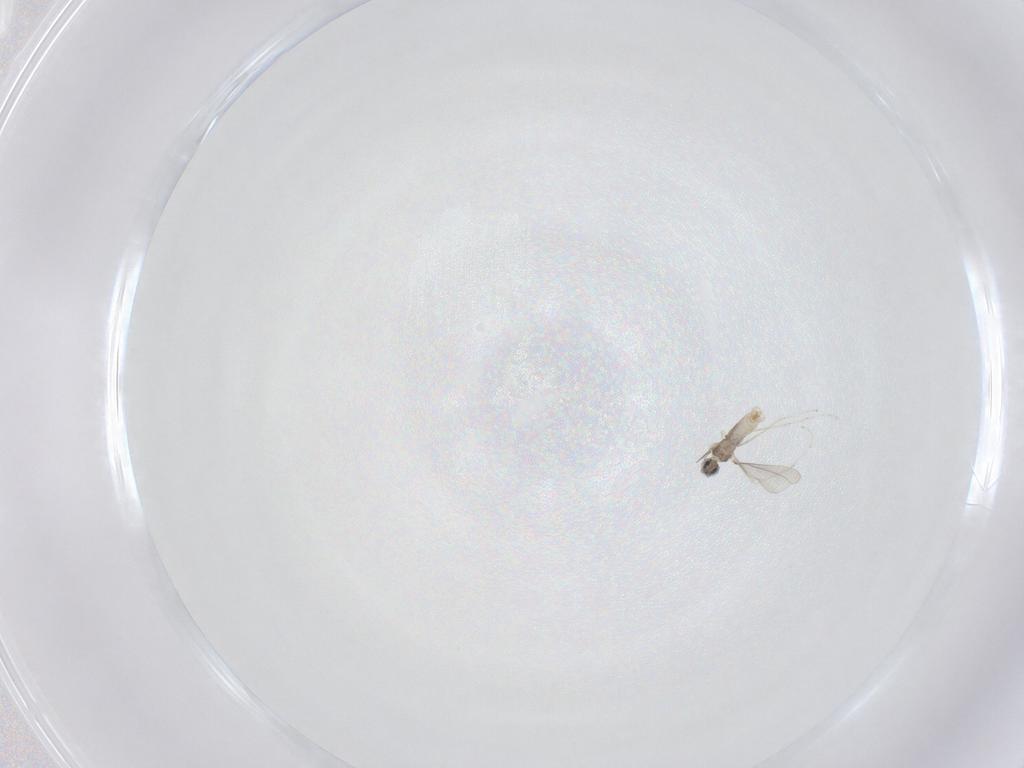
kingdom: Animalia
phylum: Arthropoda
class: Insecta
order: Diptera
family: Cecidomyiidae
